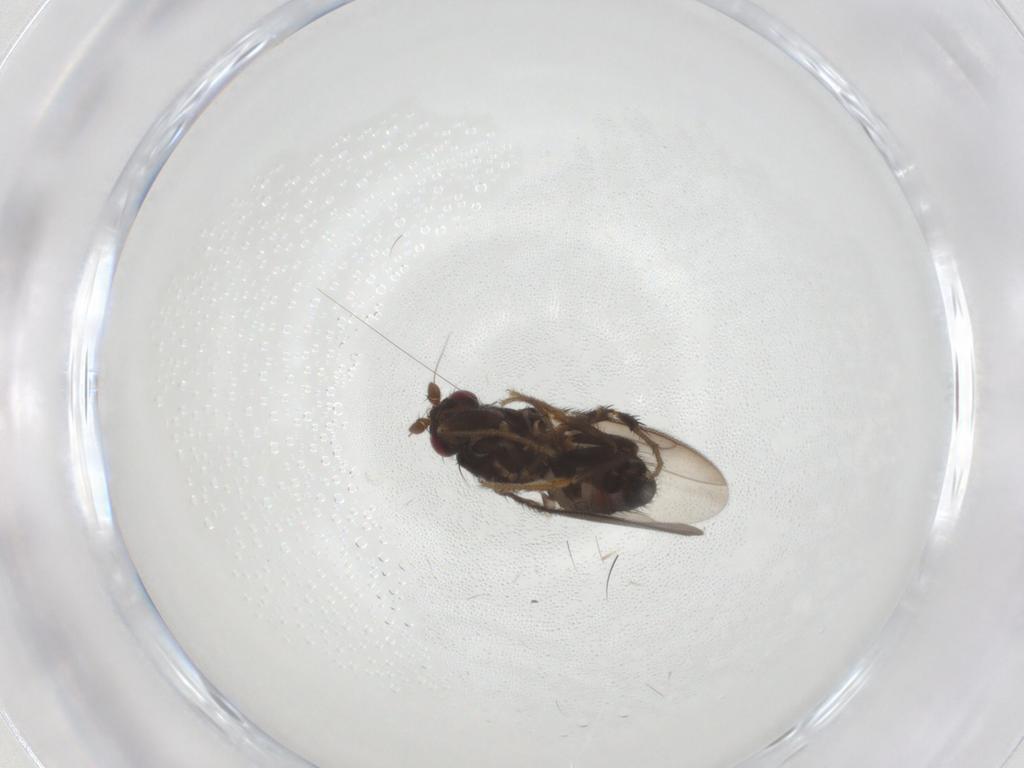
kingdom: Animalia
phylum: Arthropoda
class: Insecta
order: Diptera
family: Sphaeroceridae
